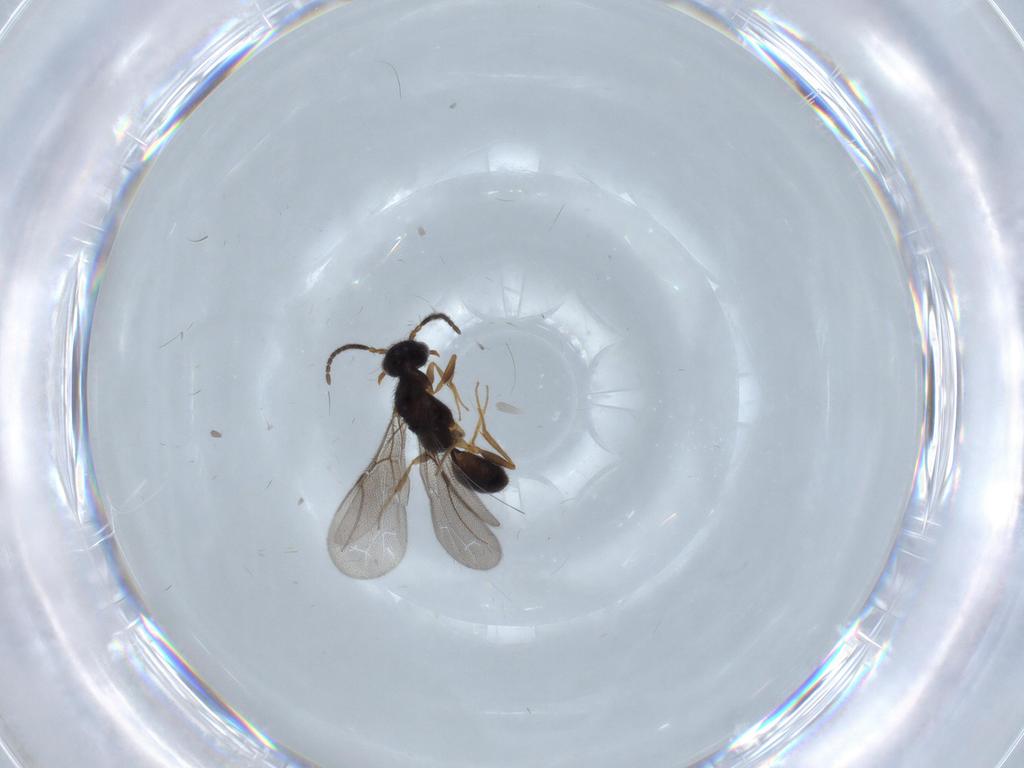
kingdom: Animalia
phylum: Arthropoda
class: Insecta
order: Hymenoptera
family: Bethylidae
